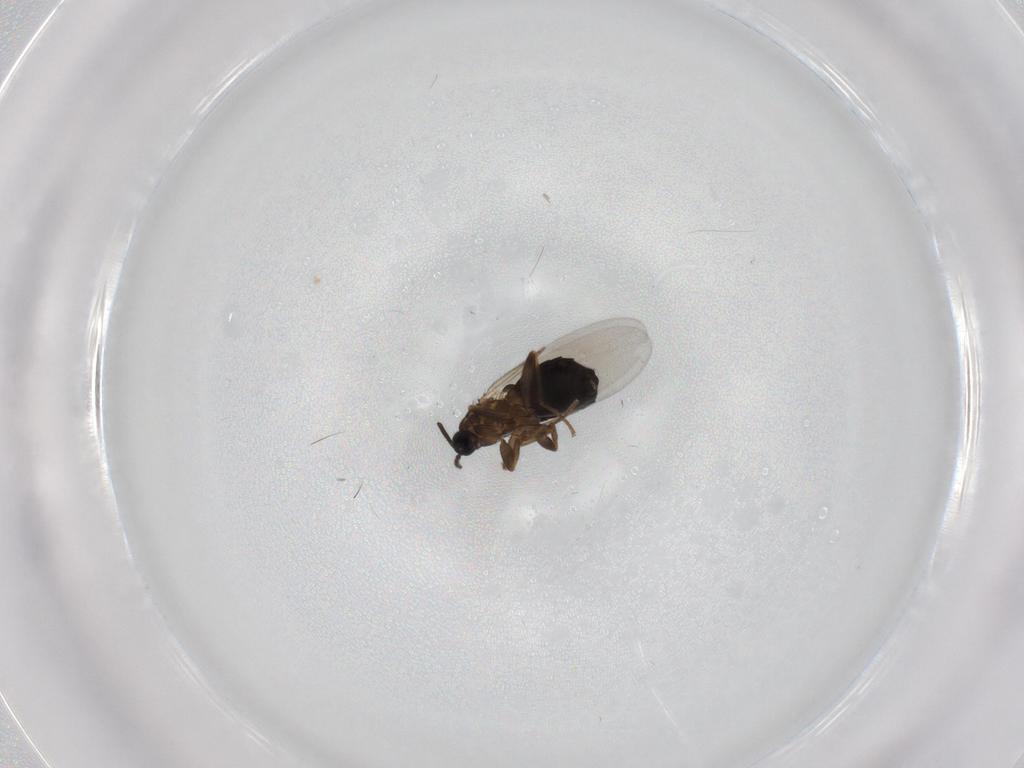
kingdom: Animalia
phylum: Arthropoda
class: Insecta
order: Diptera
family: Scatopsidae
